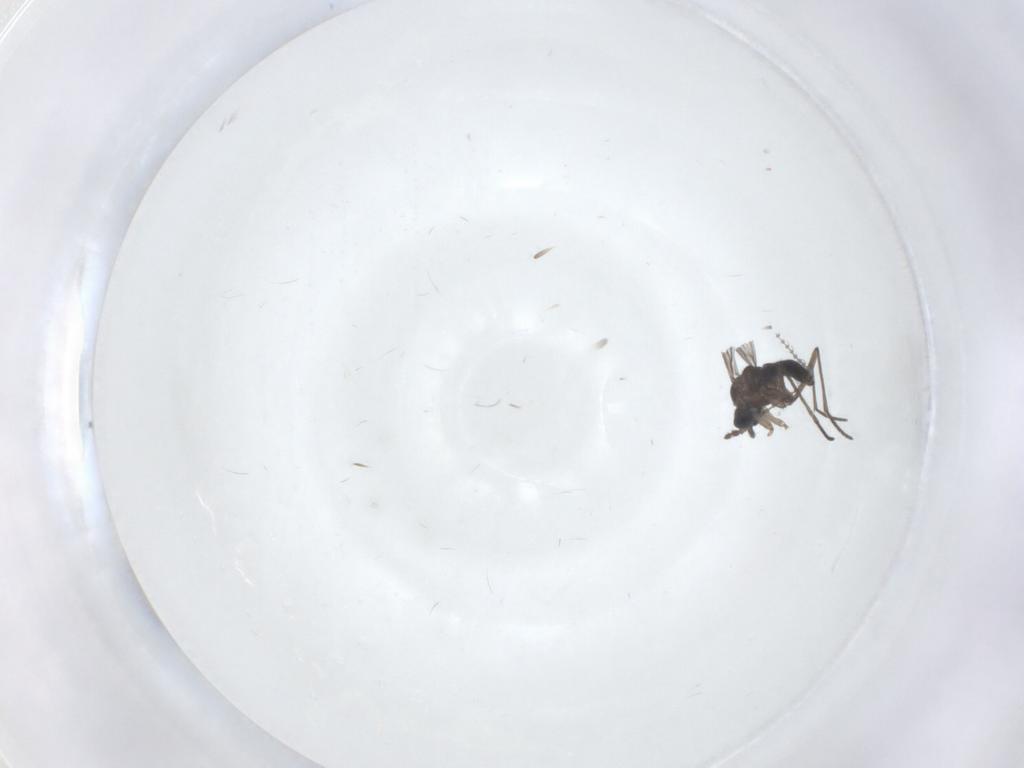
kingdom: Animalia
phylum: Arthropoda
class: Insecta
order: Diptera
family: Cecidomyiidae
